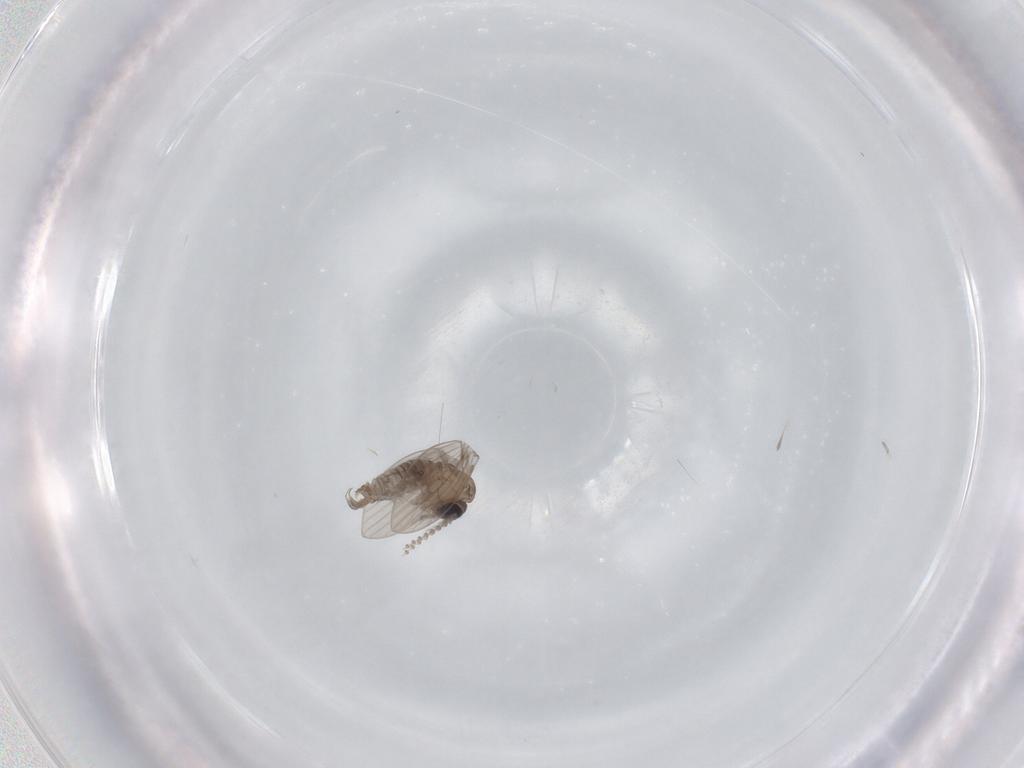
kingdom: Animalia
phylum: Arthropoda
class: Insecta
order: Diptera
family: Psychodidae
